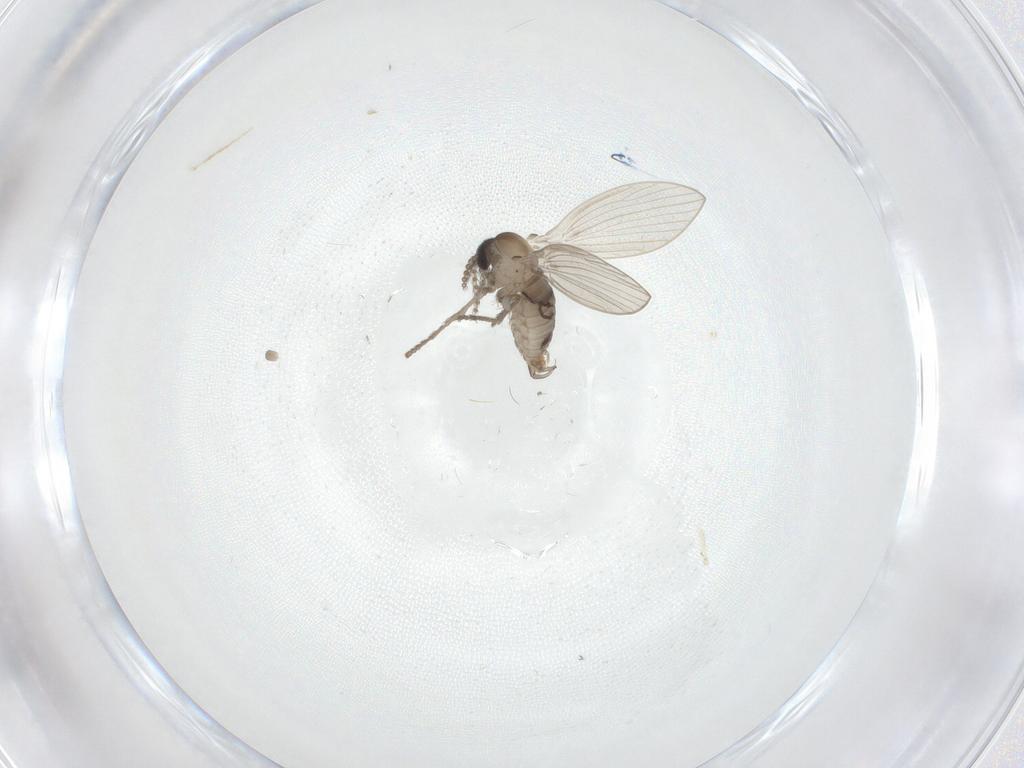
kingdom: Animalia
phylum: Arthropoda
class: Insecta
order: Diptera
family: Psychodidae
